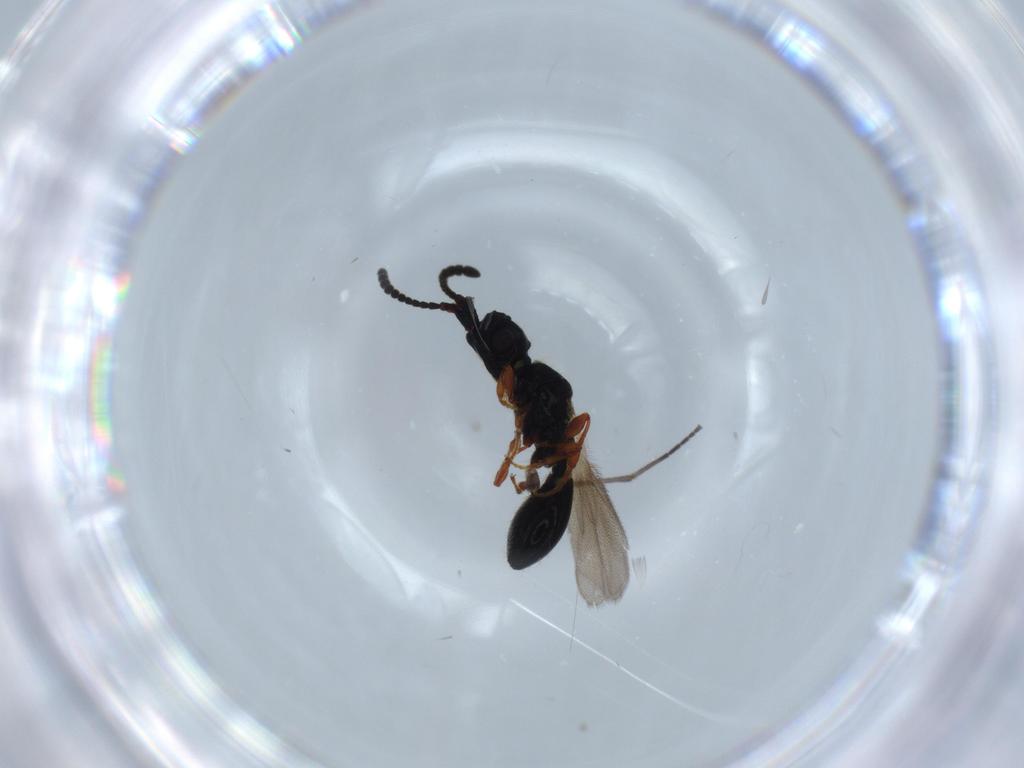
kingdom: Animalia
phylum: Arthropoda
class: Insecta
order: Hymenoptera
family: Diapriidae
